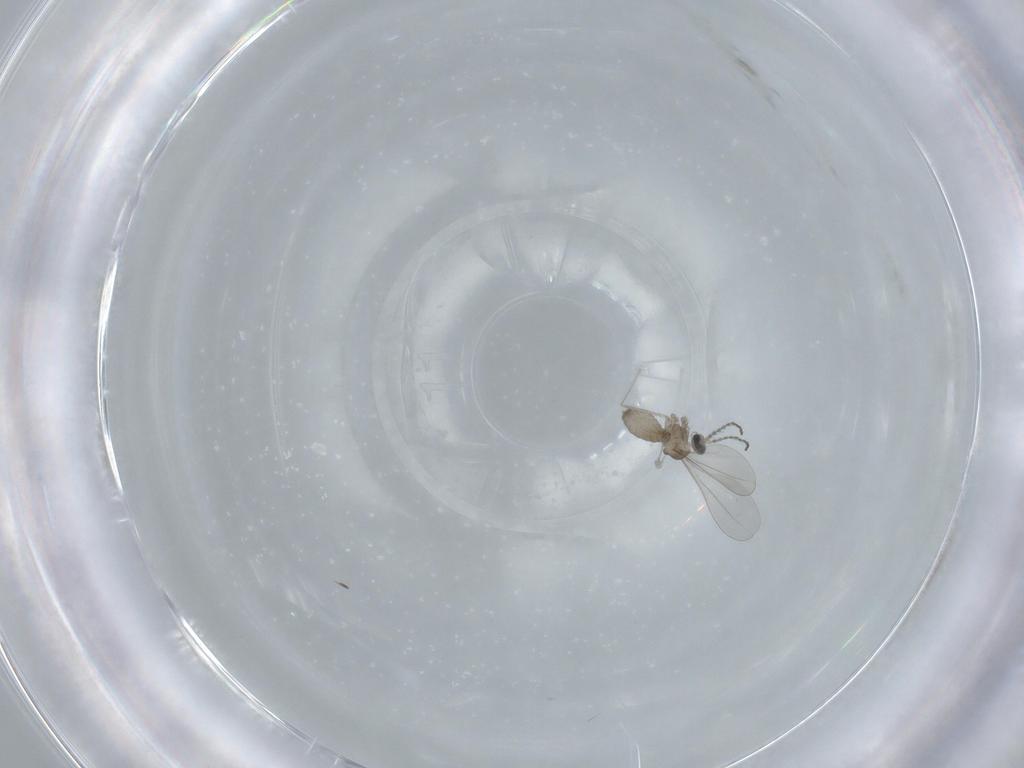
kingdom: Animalia
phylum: Arthropoda
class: Insecta
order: Diptera
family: Cecidomyiidae
